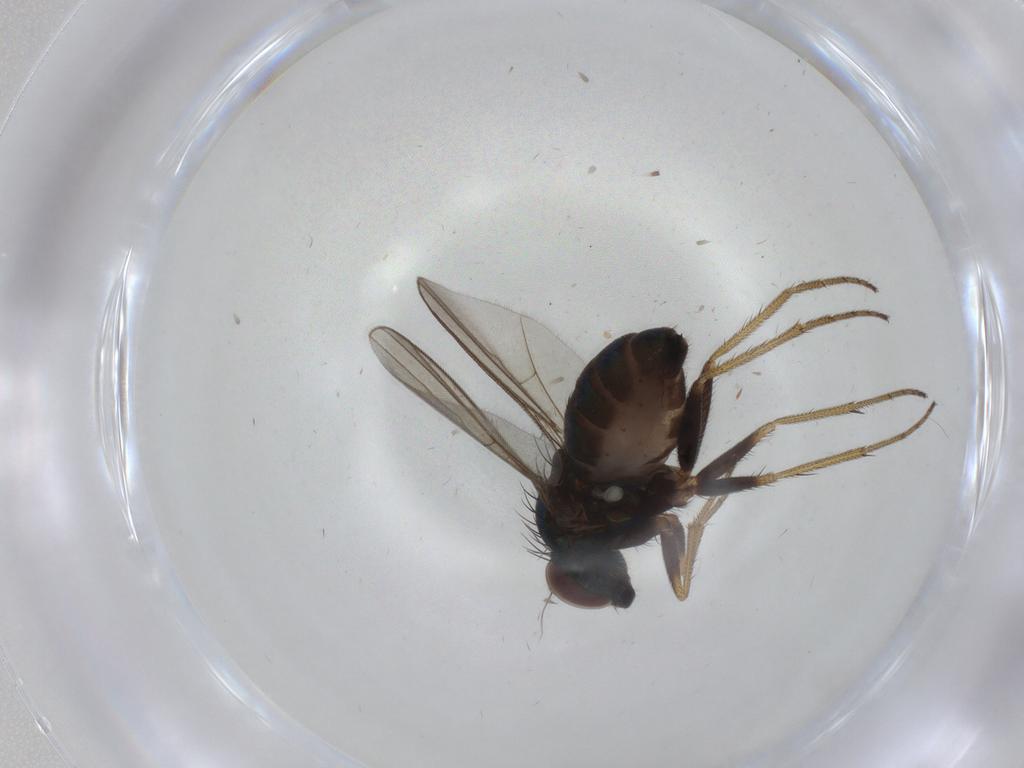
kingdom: Animalia
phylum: Arthropoda
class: Insecta
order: Diptera
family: Dolichopodidae
